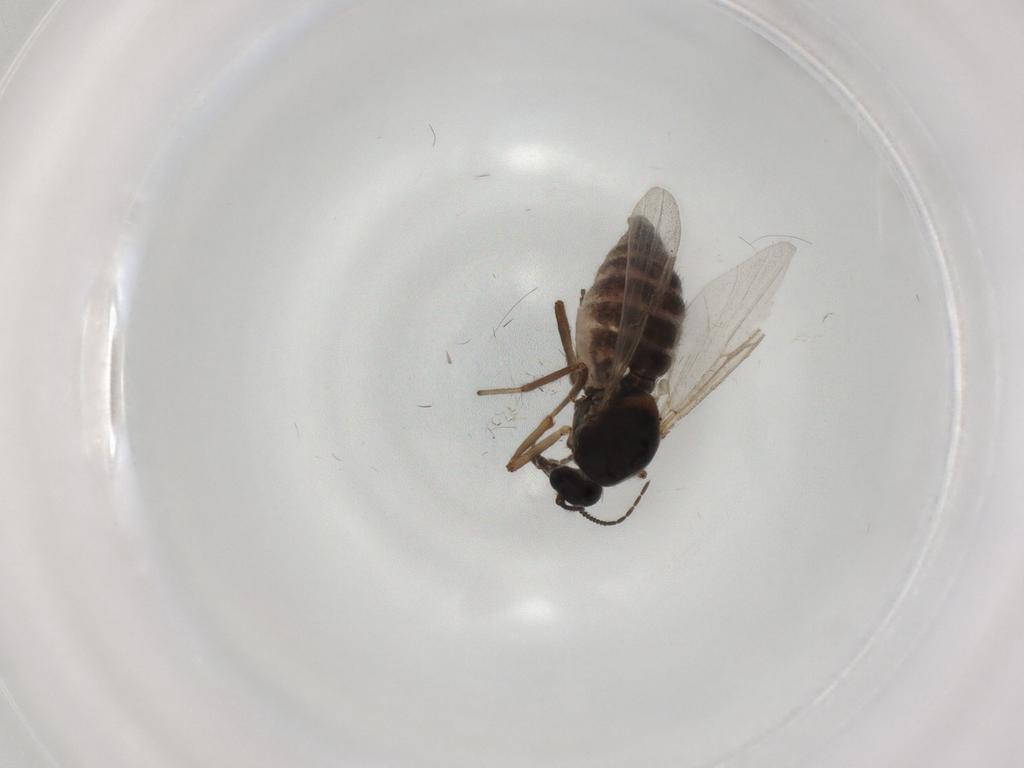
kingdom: Animalia
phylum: Arthropoda
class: Insecta
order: Diptera
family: Ceratopogonidae
